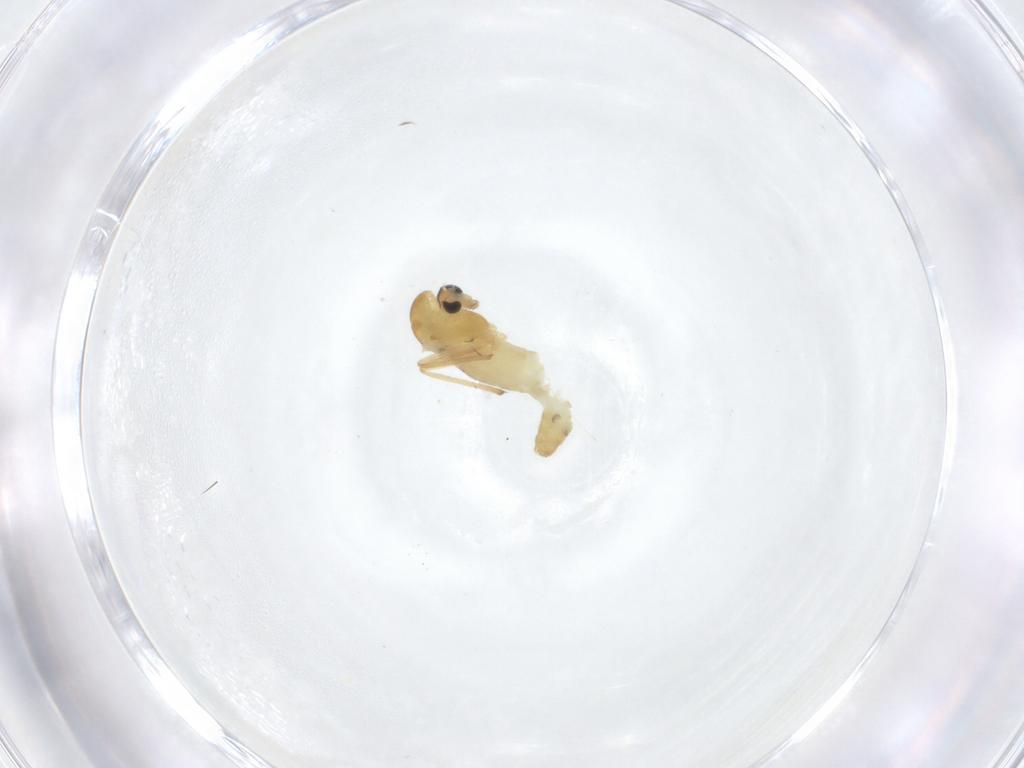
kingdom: Animalia
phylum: Arthropoda
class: Insecta
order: Diptera
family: Chironomidae
